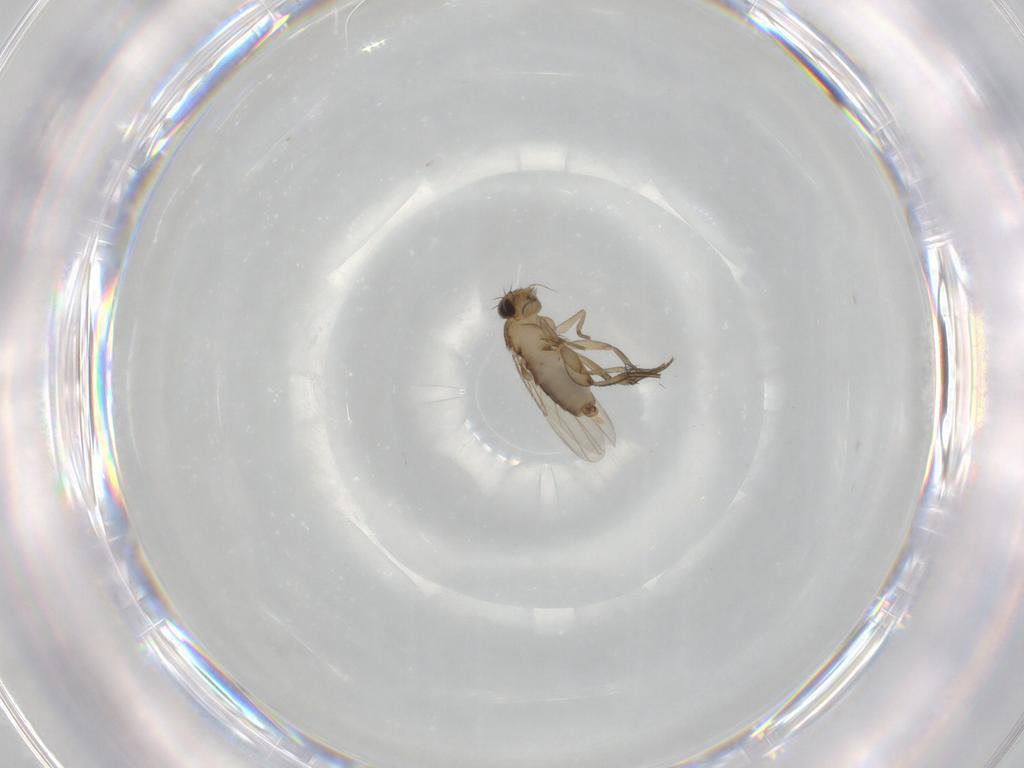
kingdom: Animalia
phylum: Arthropoda
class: Insecta
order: Diptera
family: Phoridae
